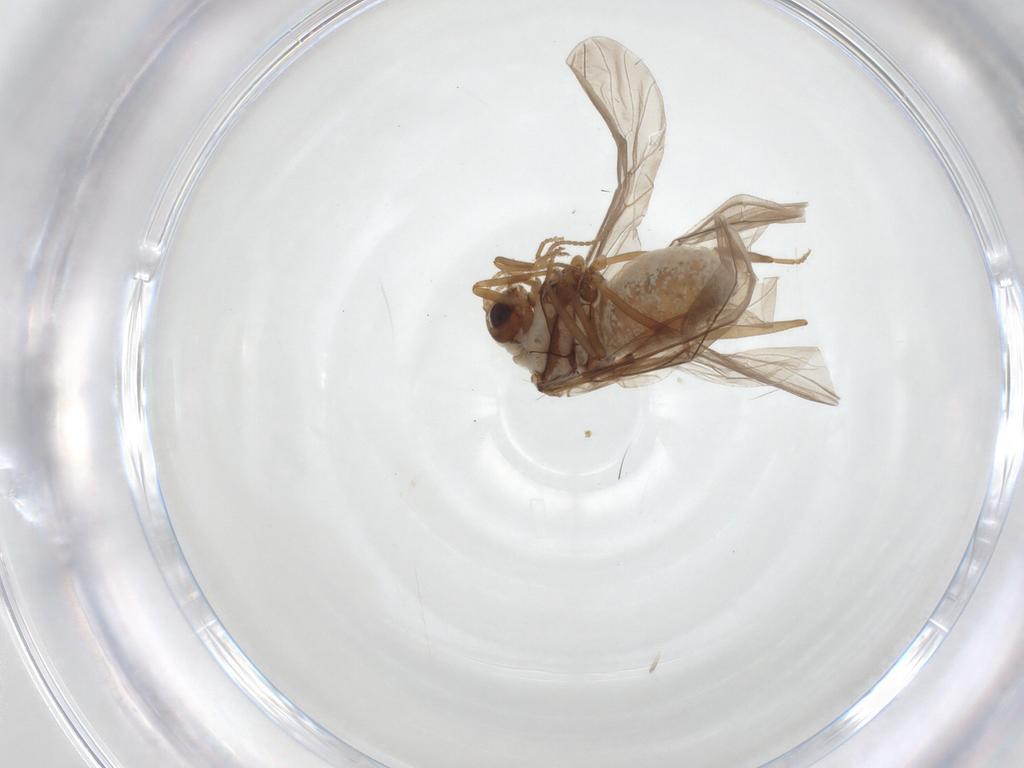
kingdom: Animalia
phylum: Arthropoda
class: Insecta
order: Neuroptera
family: Coniopterygidae
